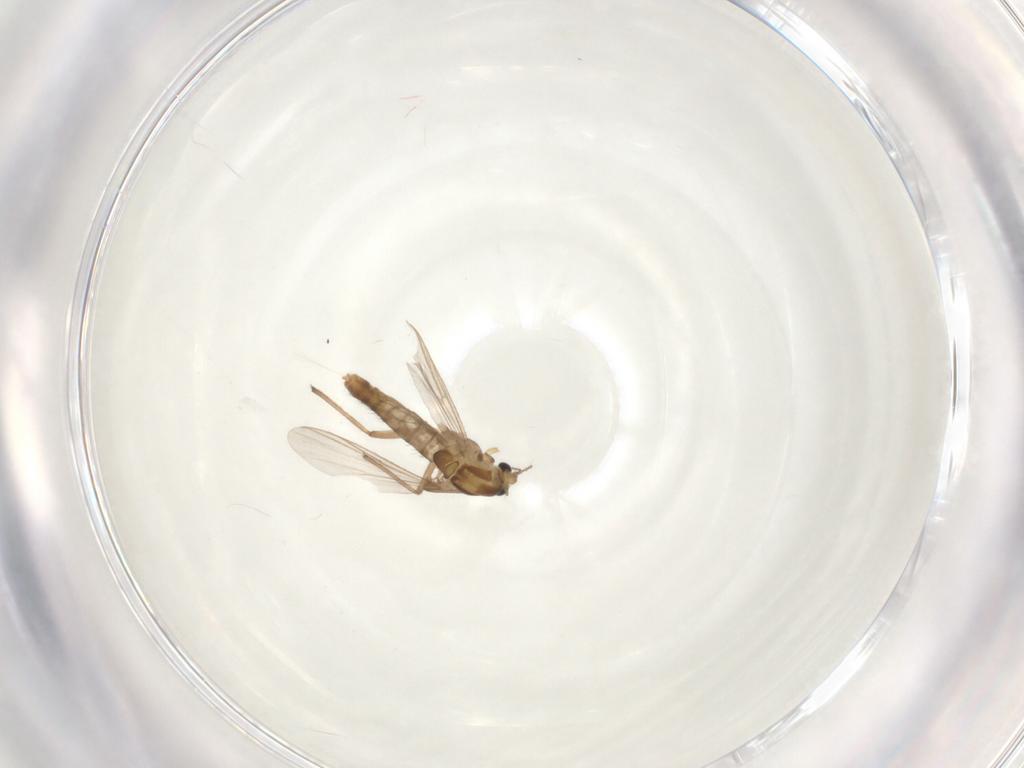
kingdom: Animalia
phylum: Arthropoda
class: Insecta
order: Diptera
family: Chironomidae
